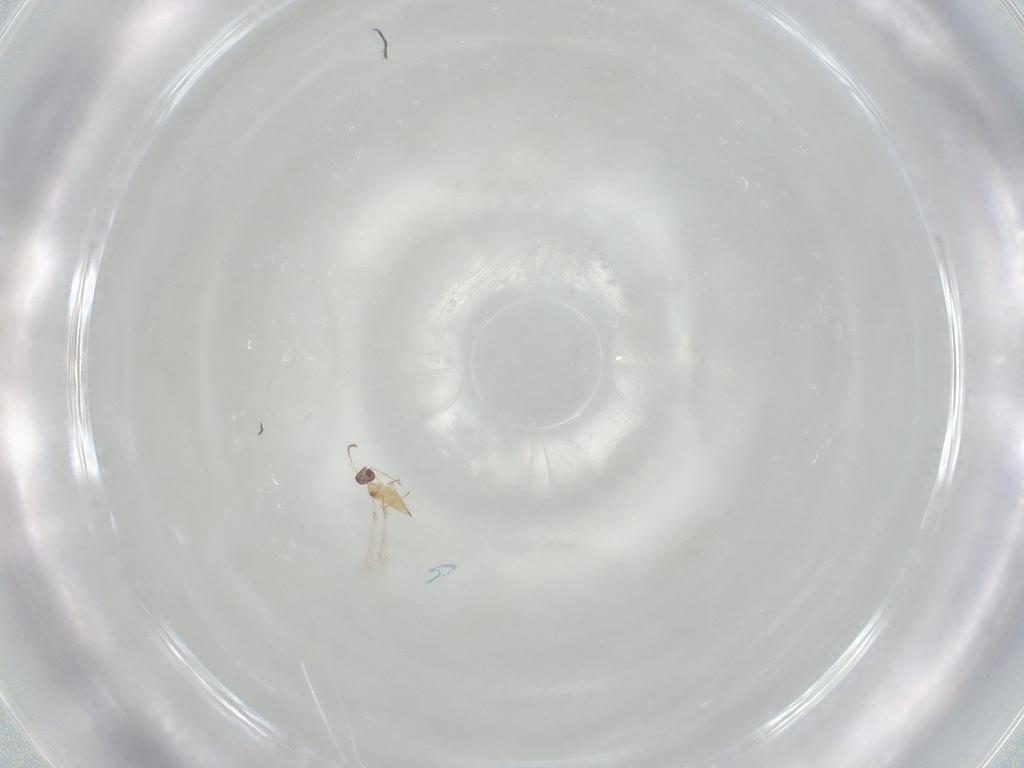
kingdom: Animalia
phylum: Arthropoda
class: Insecta
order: Hymenoptera
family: Mymaridae
